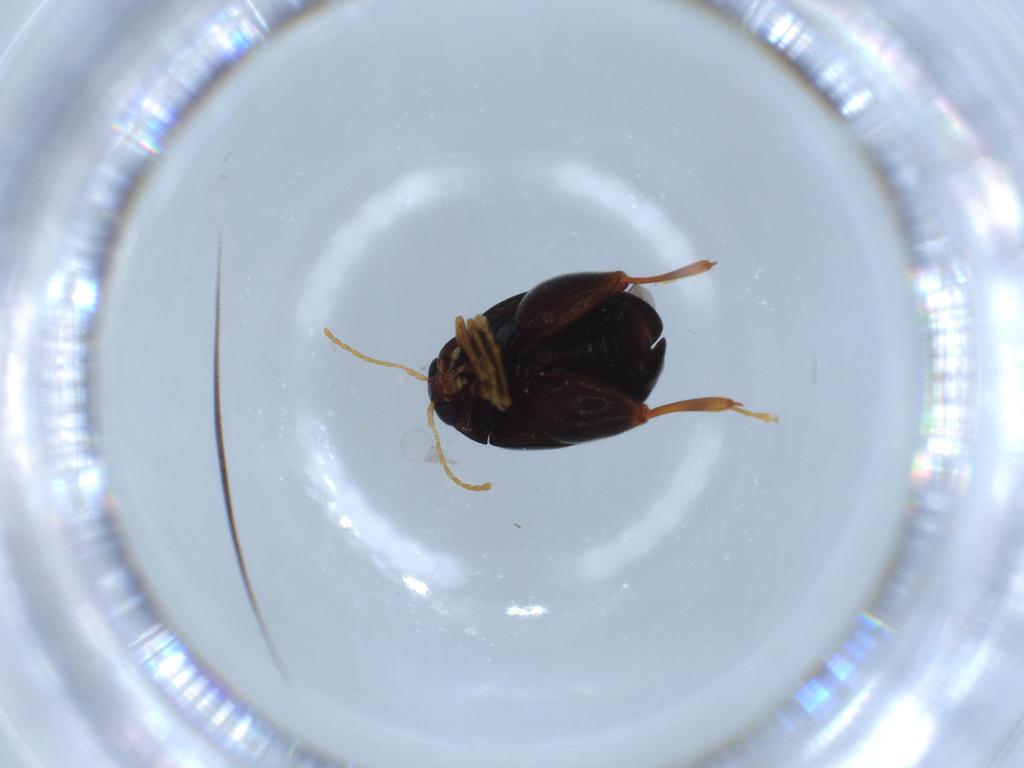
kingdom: Animalia
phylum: Arthropoda
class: Insecta
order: Coleoptera
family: Chrysomelidae
